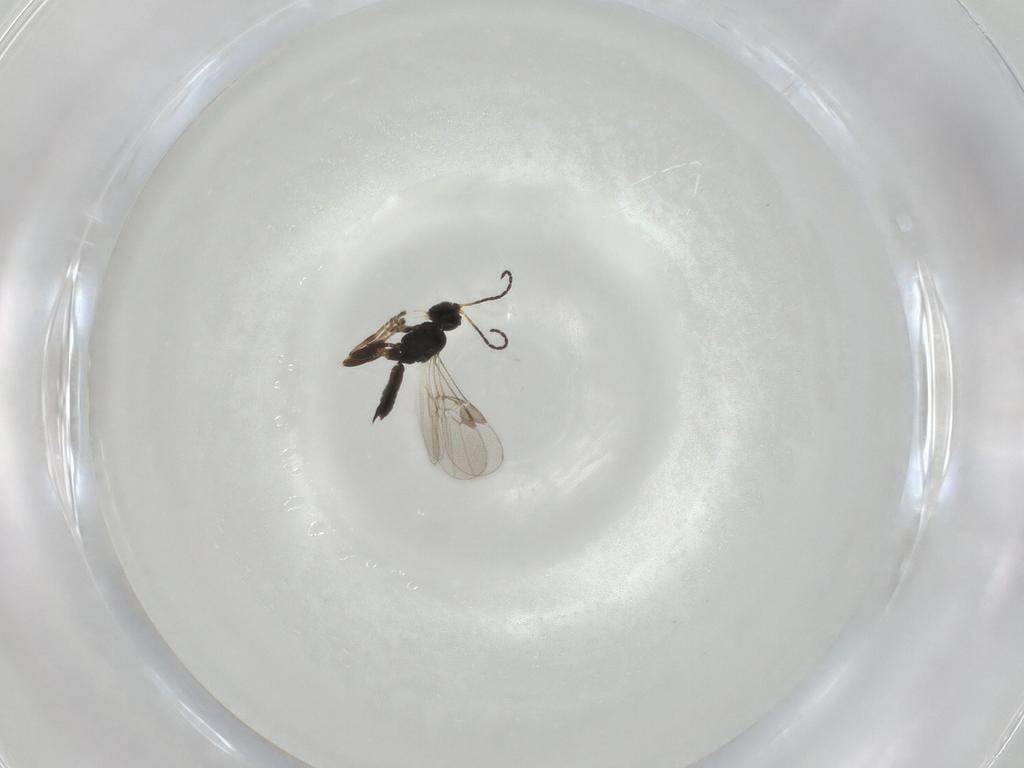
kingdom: Animalia
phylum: Arthropoda
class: Insecta
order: Hymenoptera
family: Braconidae
